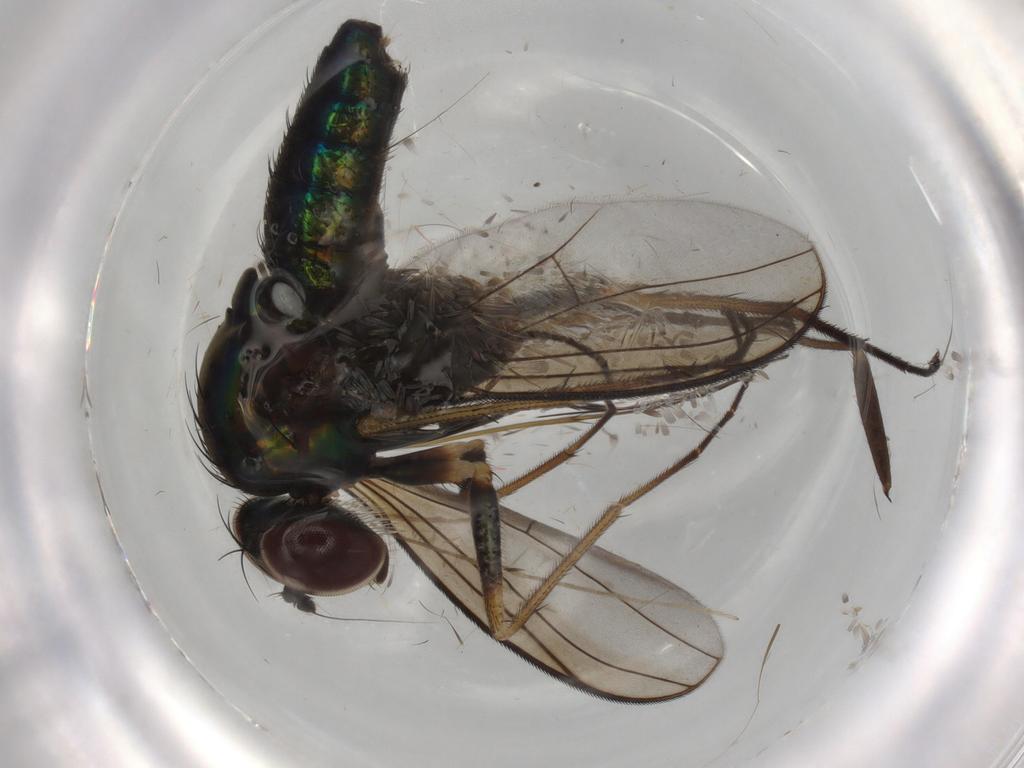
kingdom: Animalia
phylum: Arthropoda
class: Insecta
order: Diptera
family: Dolichopodidae
